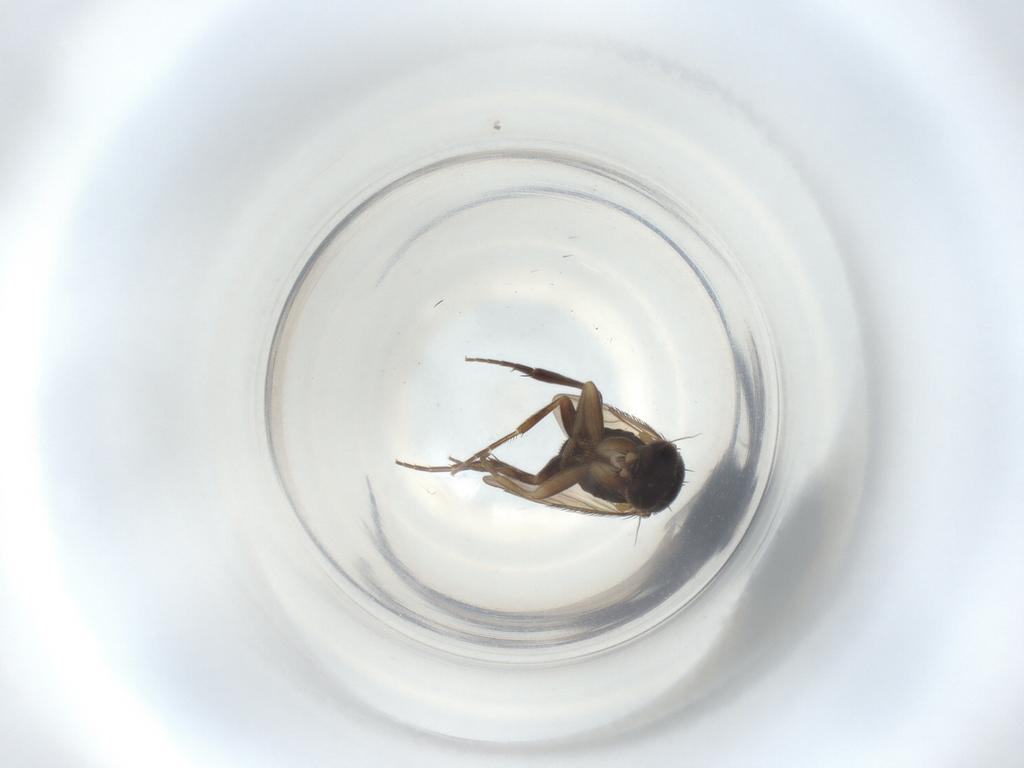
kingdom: Animalia
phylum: Arthropoda
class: Insecta
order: Diptera
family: Phoridae
